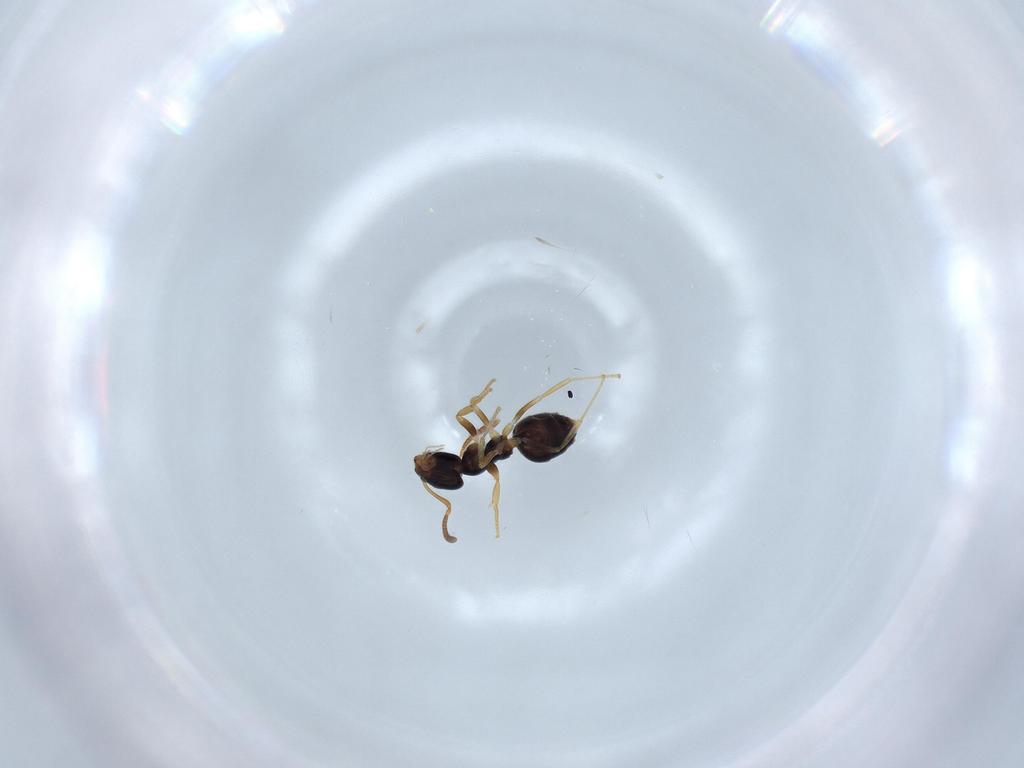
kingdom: Animalia
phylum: Arthropoda
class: Insecta
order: Hymenoptera
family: Formicidae
